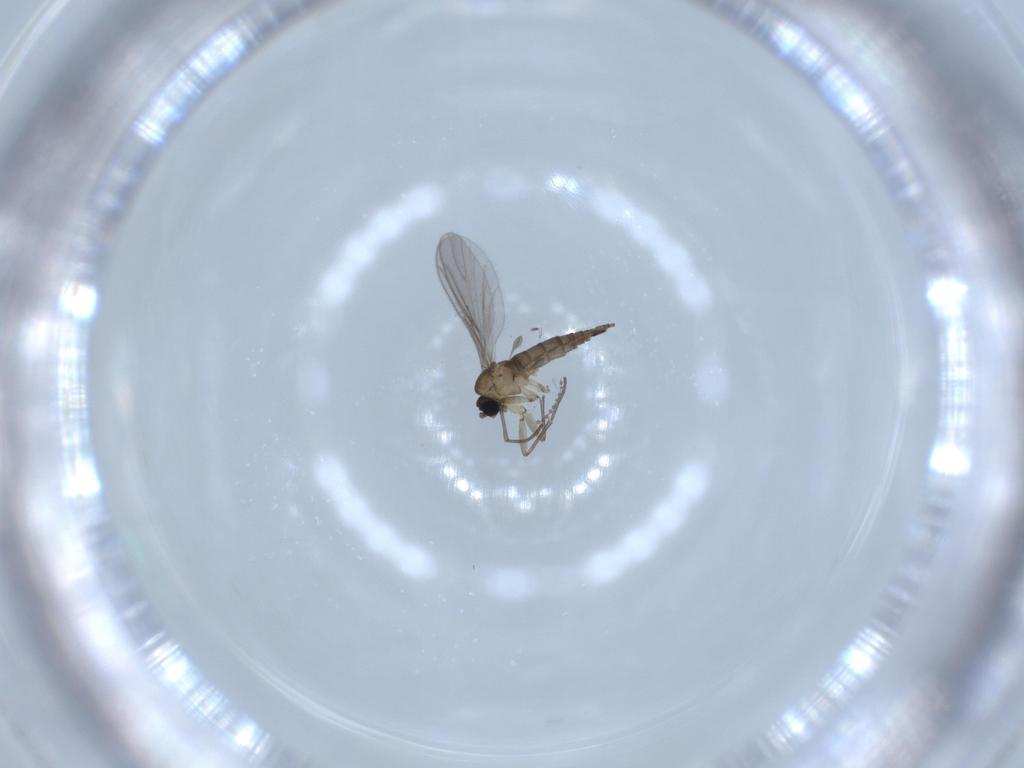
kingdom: Animalia
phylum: Arthropoda
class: Insecta
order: Diptera
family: Sciaridae
